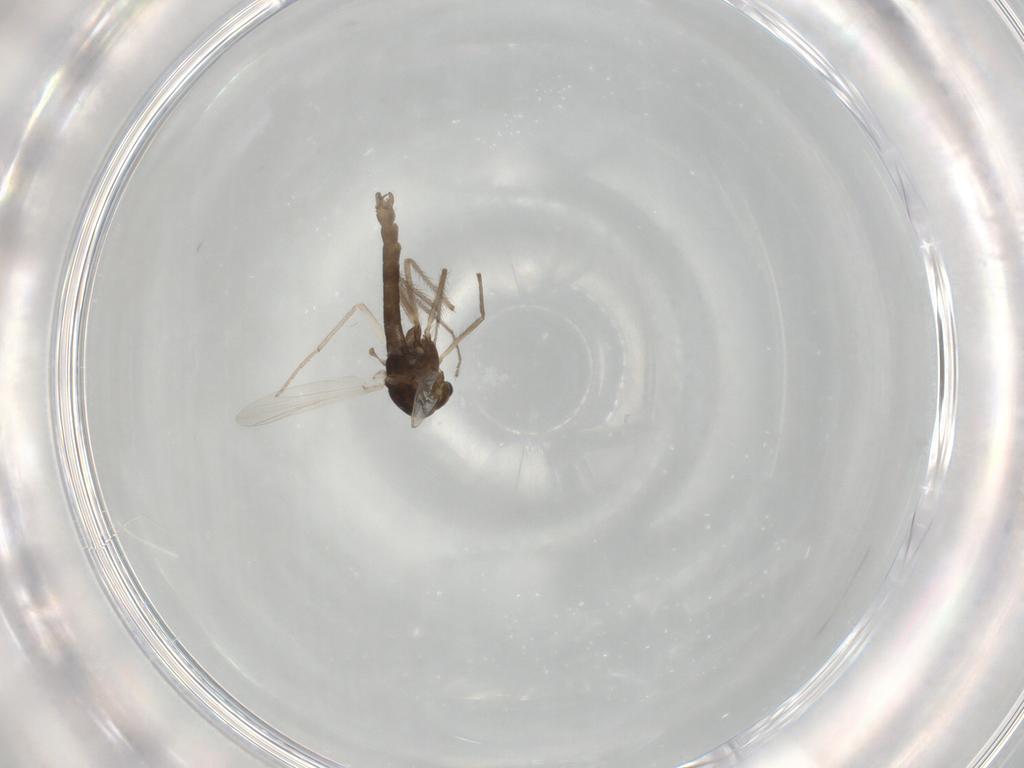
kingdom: Animalia
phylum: Arthropoda
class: Insecta
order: Diptera
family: Chironomidae
